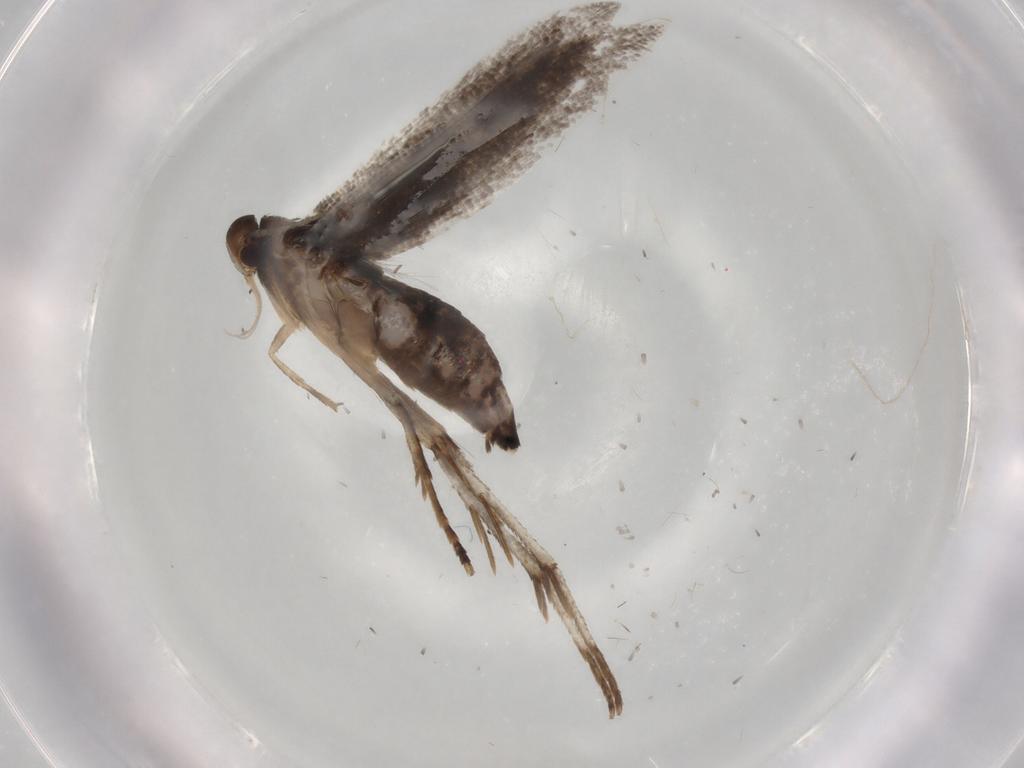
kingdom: Animalia
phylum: Arthropoda
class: Insecta
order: Lepidoptera
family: Crambidae
